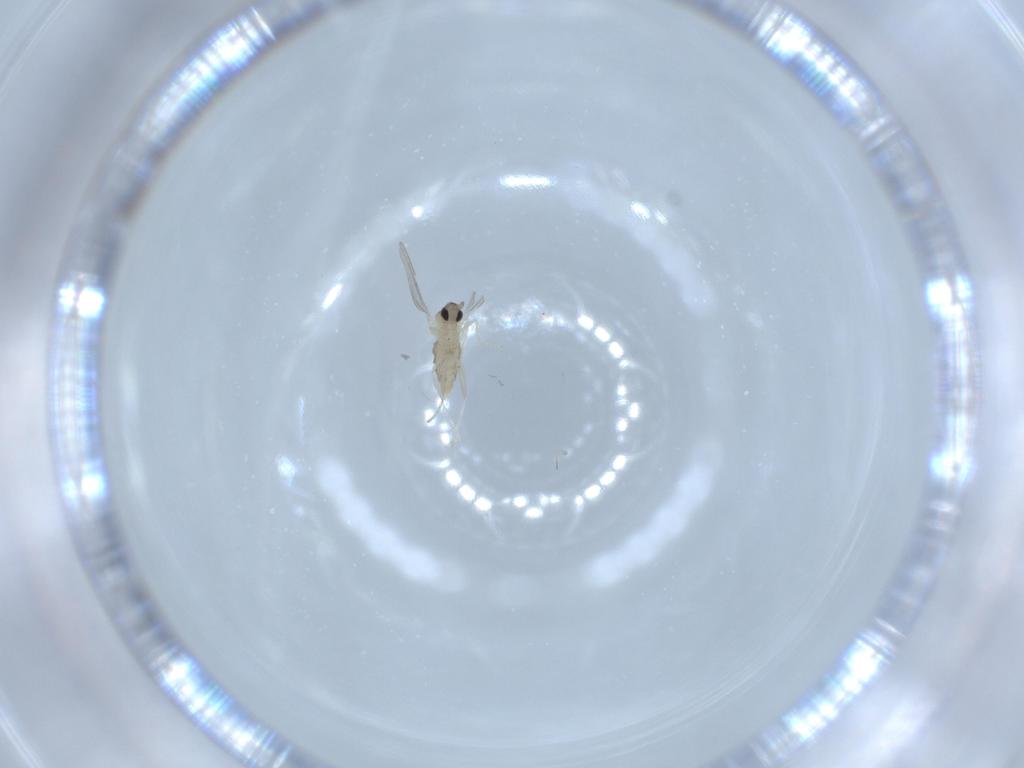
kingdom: Animalia
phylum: Arthropoda
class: Insecta
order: Diptera
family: Cecidomyiidae
